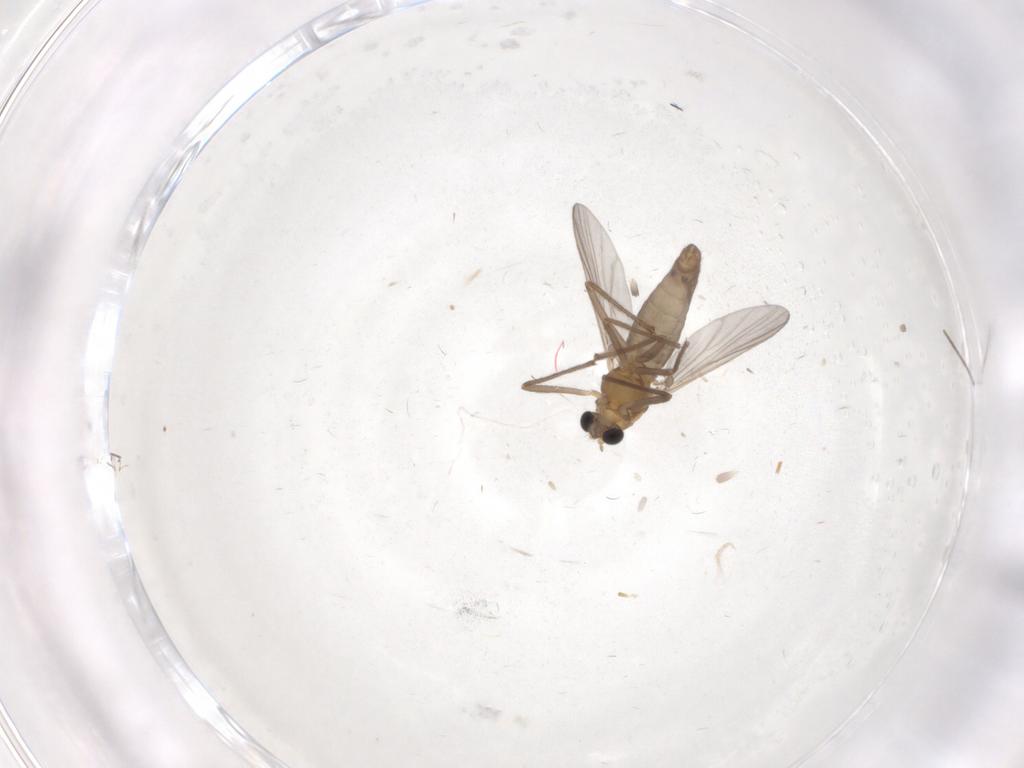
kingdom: Animalia
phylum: Arthropoda
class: Insecta
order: Diptera
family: Chironomidae
